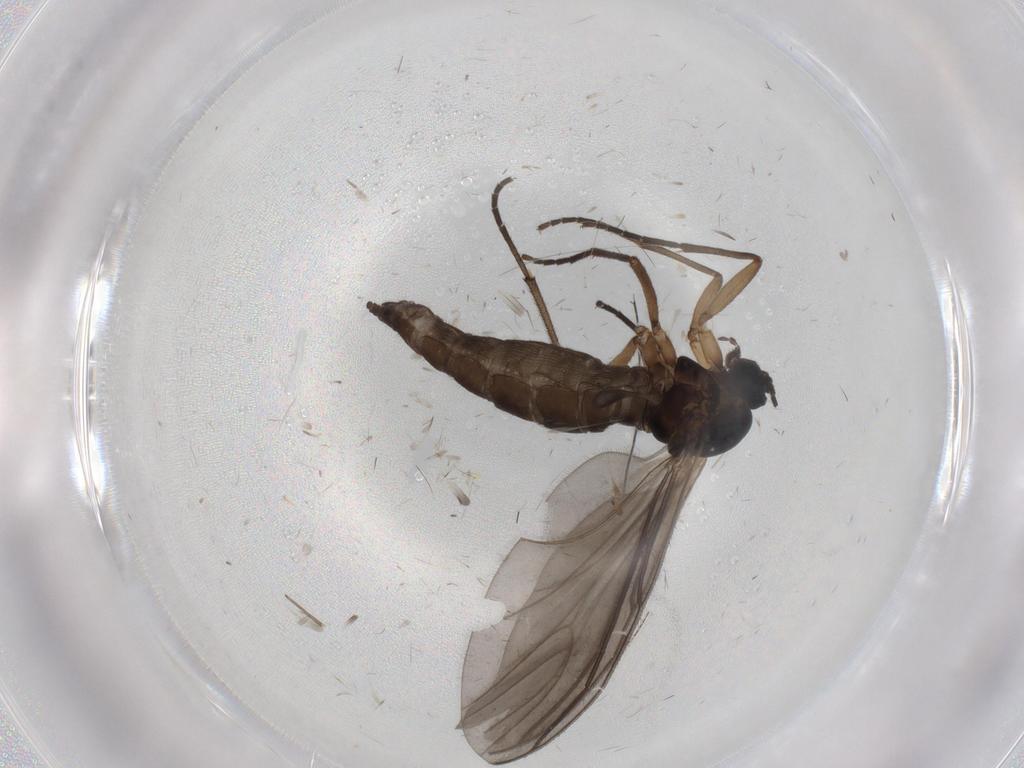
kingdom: Animalia
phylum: Arthropoda
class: Insecta
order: Diptera
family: Sciaridae
